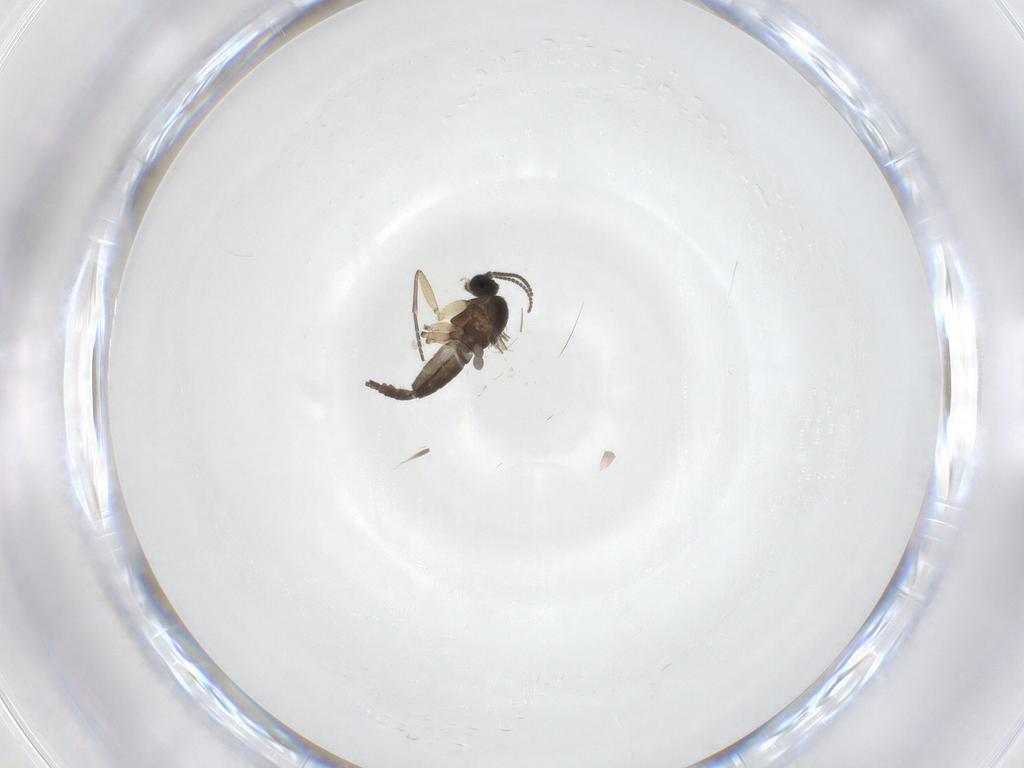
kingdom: Animalia
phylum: Arthropoda
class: Insecta
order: Diptera
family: Sciaridae
